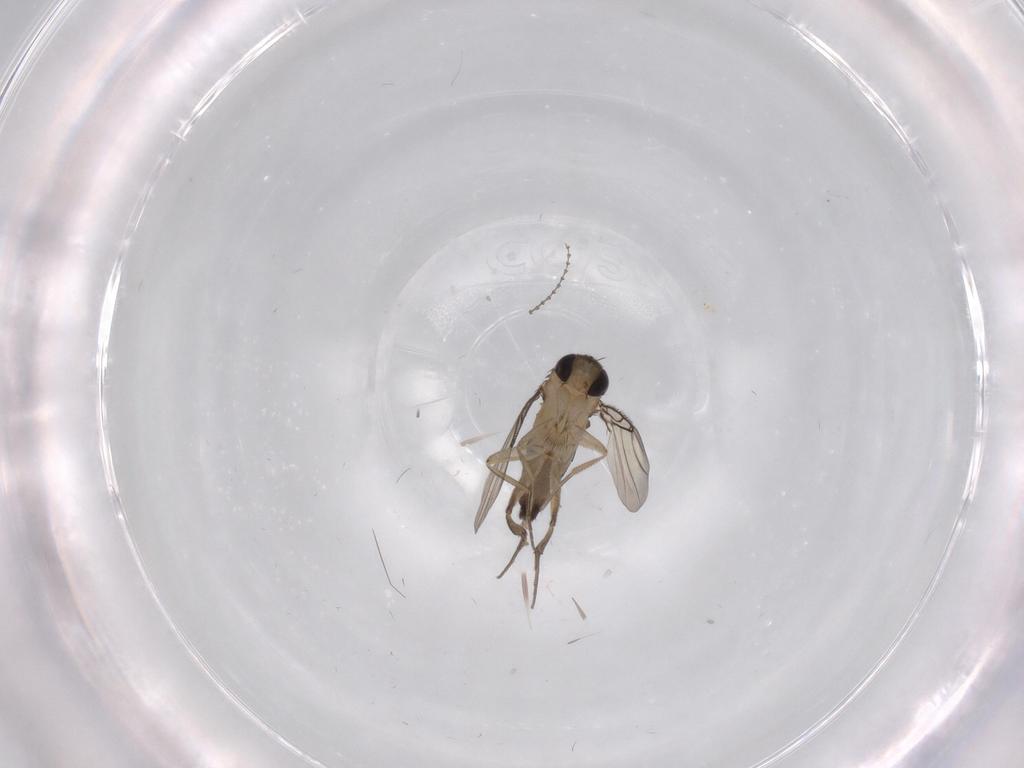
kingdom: Animalia
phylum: Arthropoda
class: Insecta
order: Diptera
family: Phoridae
